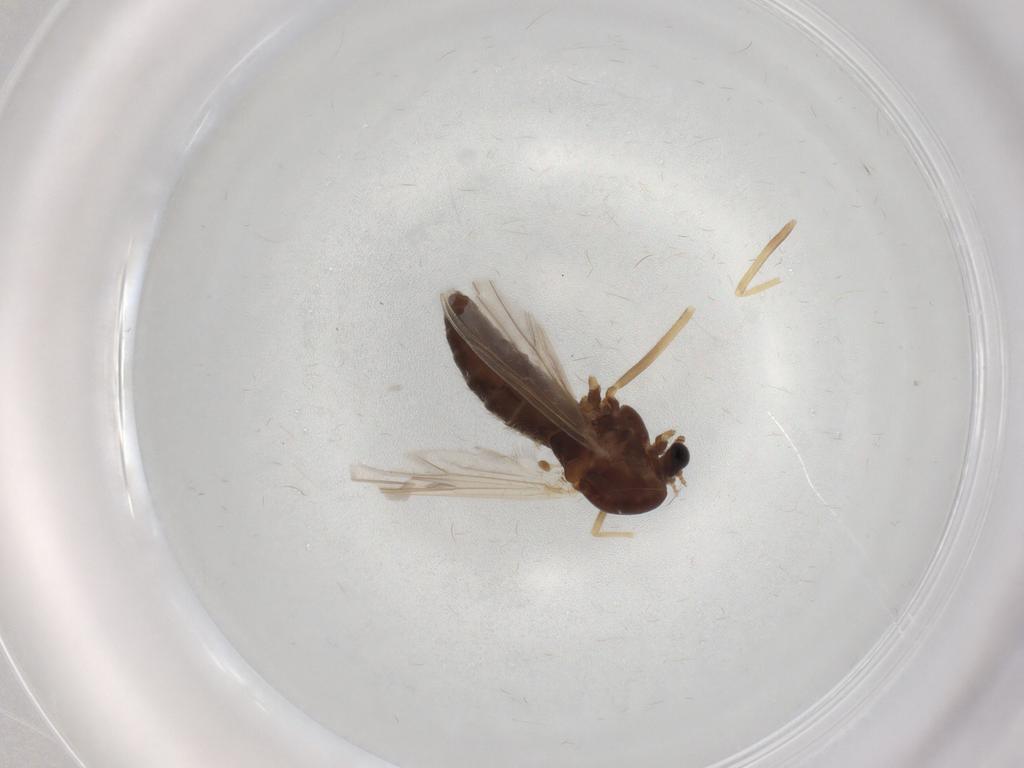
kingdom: Animalia
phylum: Arthropoda
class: Insecta
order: Diptera
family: Chironomidae
